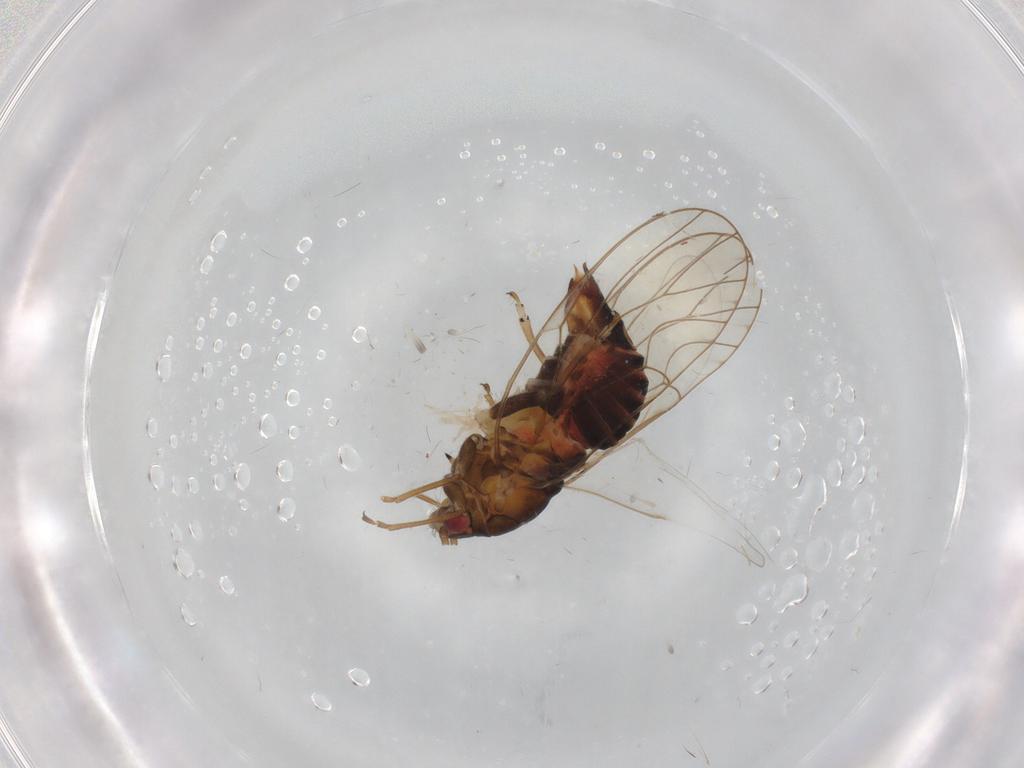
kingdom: Animalia
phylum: Arthropoda
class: Insecta
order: Hemiptera
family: Psyllidae
